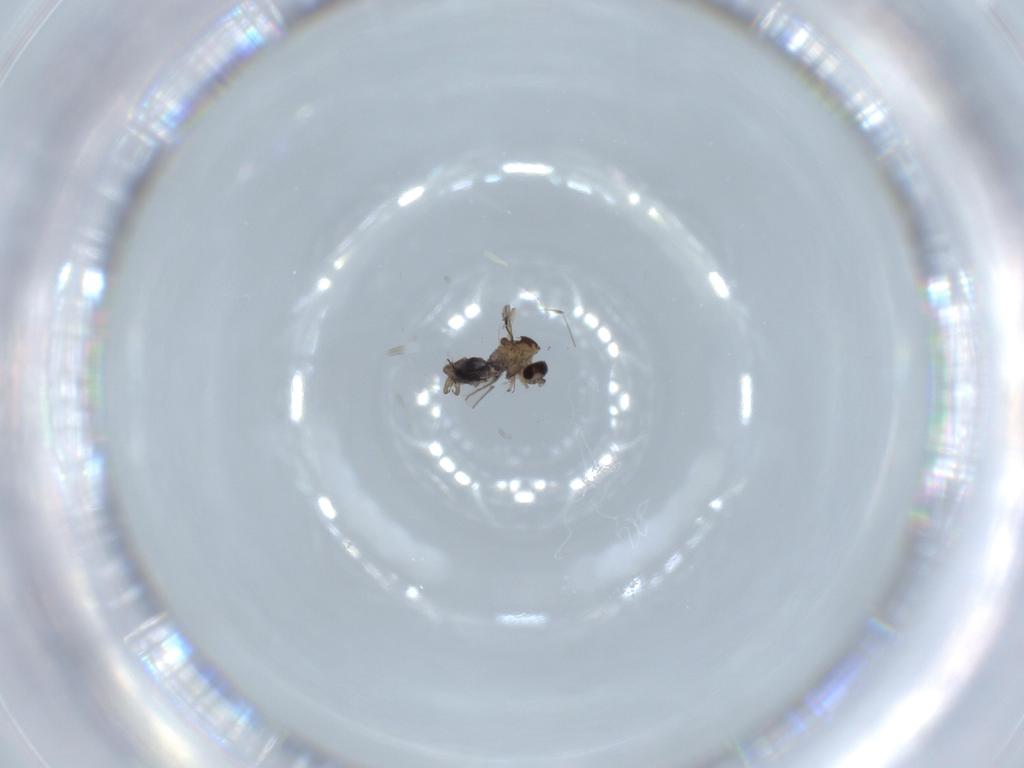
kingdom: Animalia
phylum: Arthropoda
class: Insecta
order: Diptera
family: Cecidomyiidae
